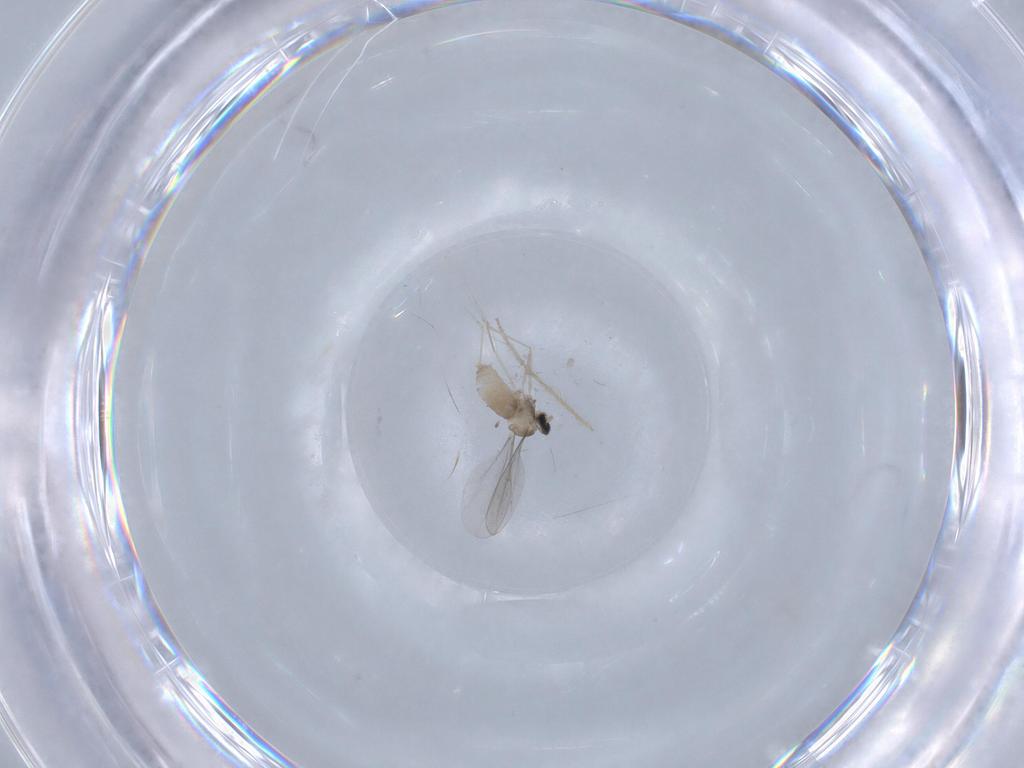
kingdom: Animalia
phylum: Arthropoda
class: Insecta
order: Diptera
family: Cecidomyiidae
